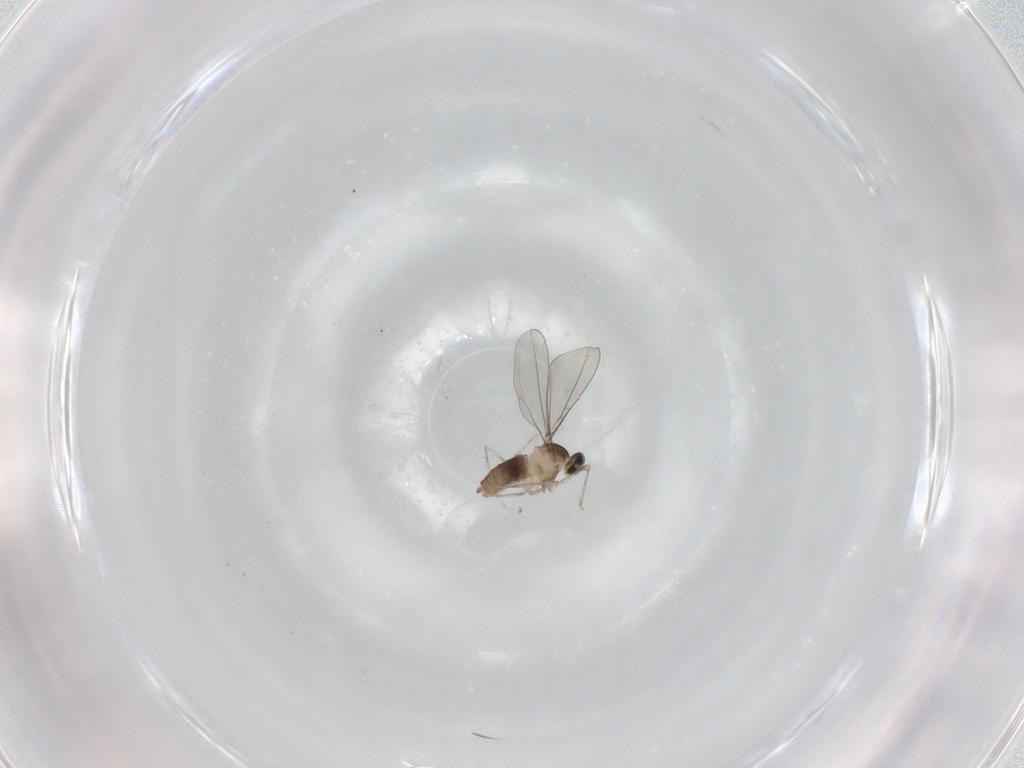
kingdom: Animalia
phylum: Arthropoda
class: Insecta
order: Diptera
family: Cecidomyiidae
